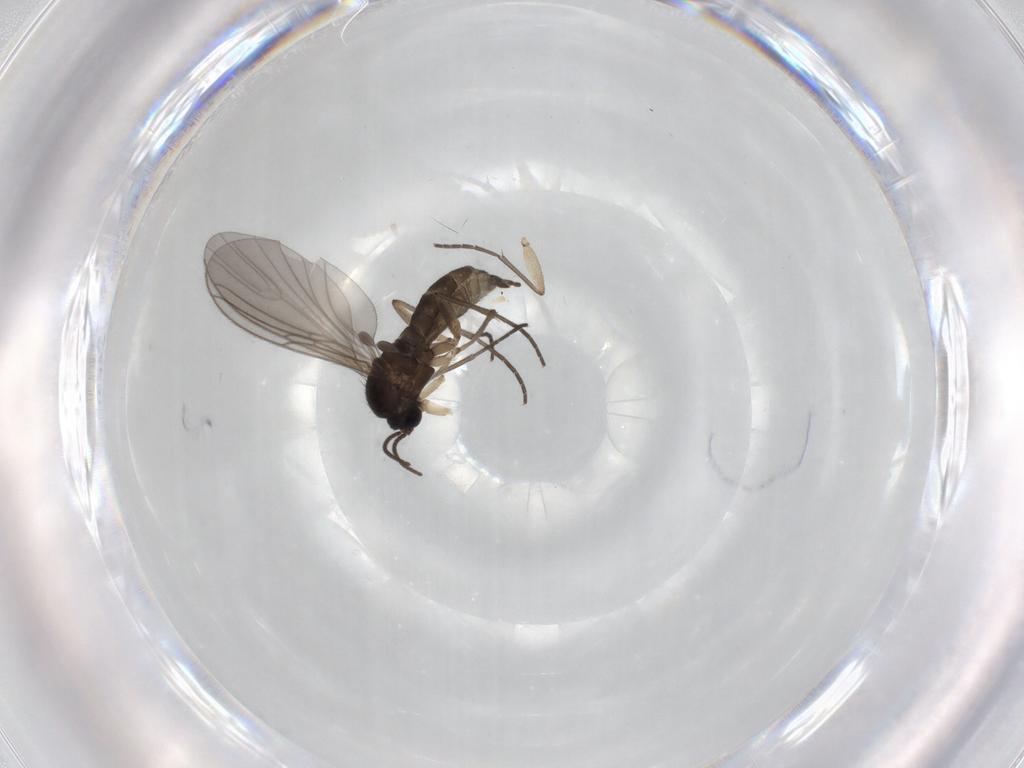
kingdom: Animalia
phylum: Arthropoda
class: Insecta
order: Diptera
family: Sciaridae
